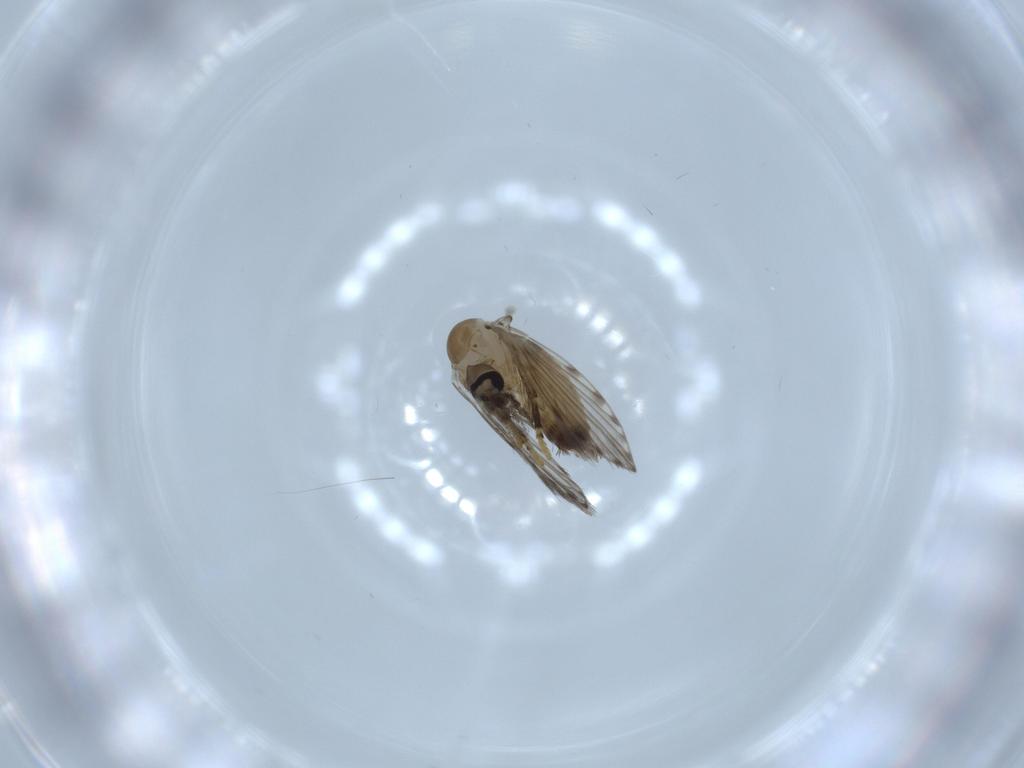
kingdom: Animalia
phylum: Arthropoda
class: Insecta
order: Diptera
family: Psychodidae
